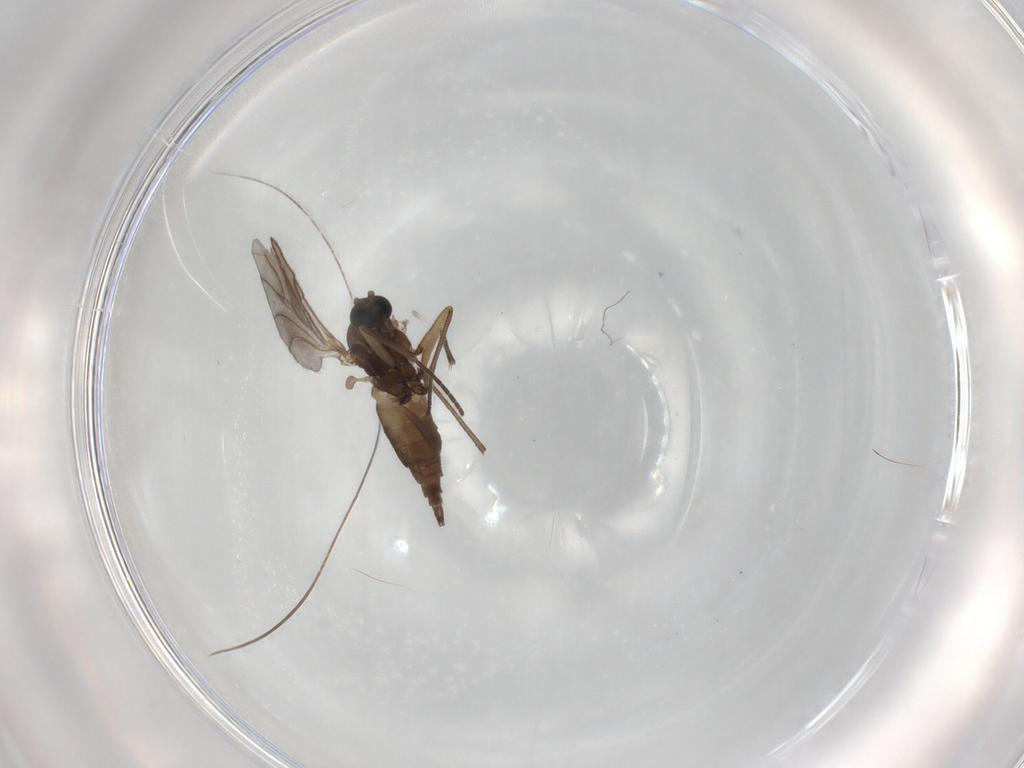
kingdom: Animalia
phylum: Arthropoda
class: Insecta
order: Diptera
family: Sciaridae
